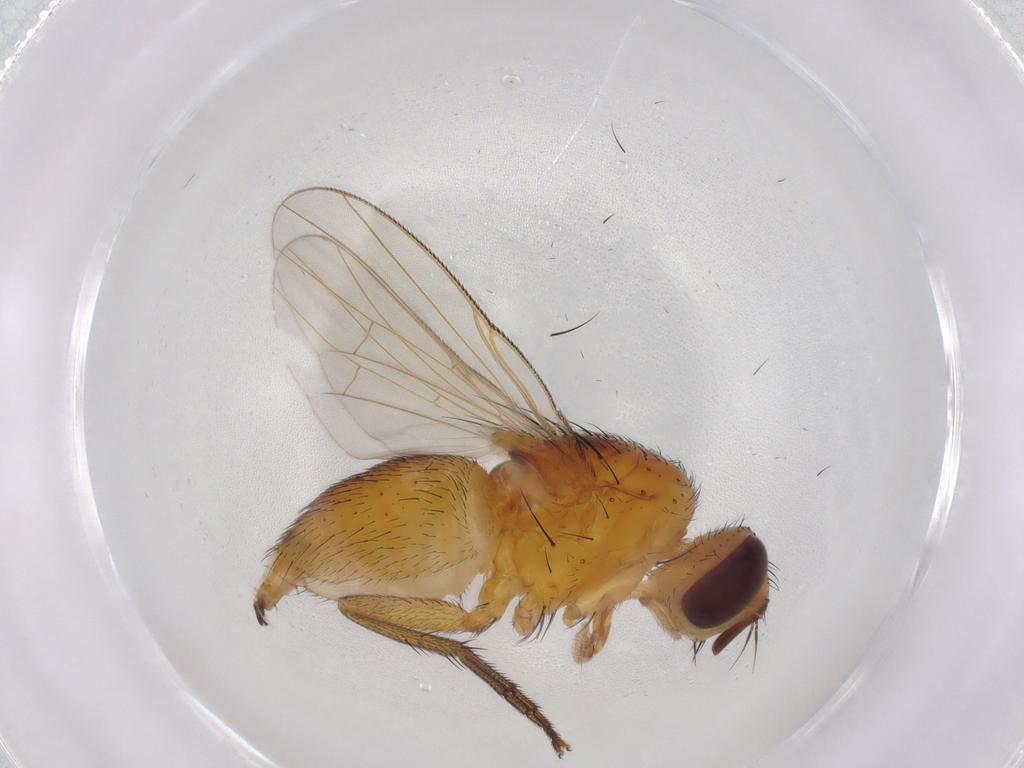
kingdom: Animalia
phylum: Arthropoda
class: Insecta
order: Diptera
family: Muscidae
